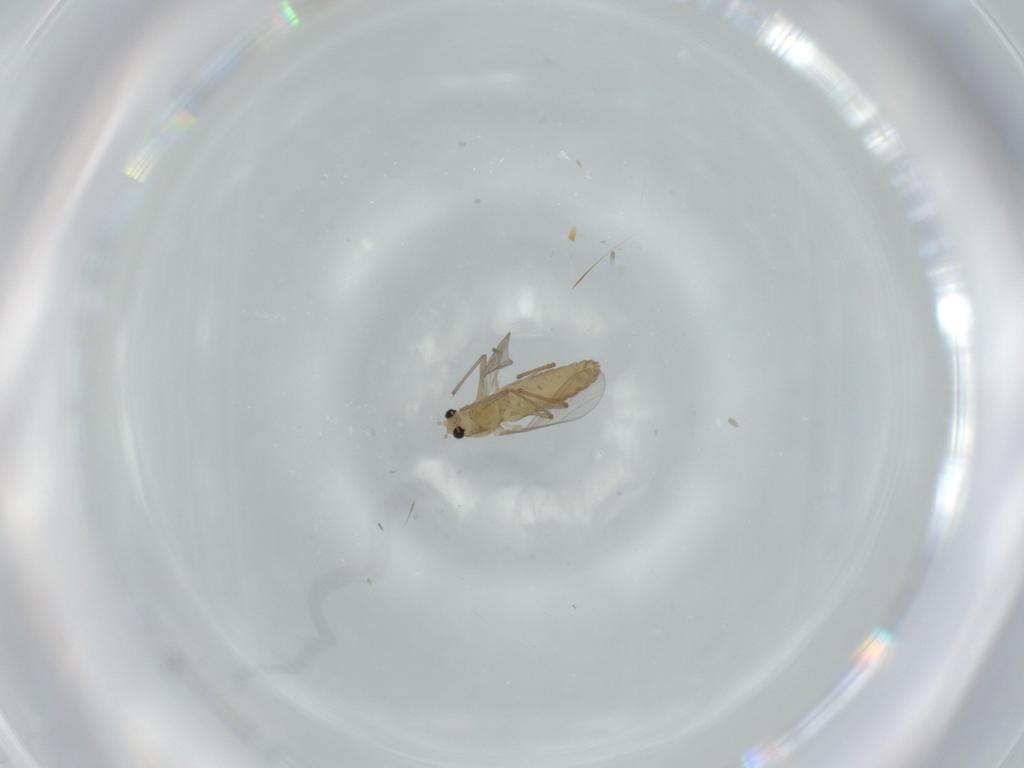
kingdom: Animalia
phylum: Arthropoda
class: Insecta
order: Diptera
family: Chironomidae
